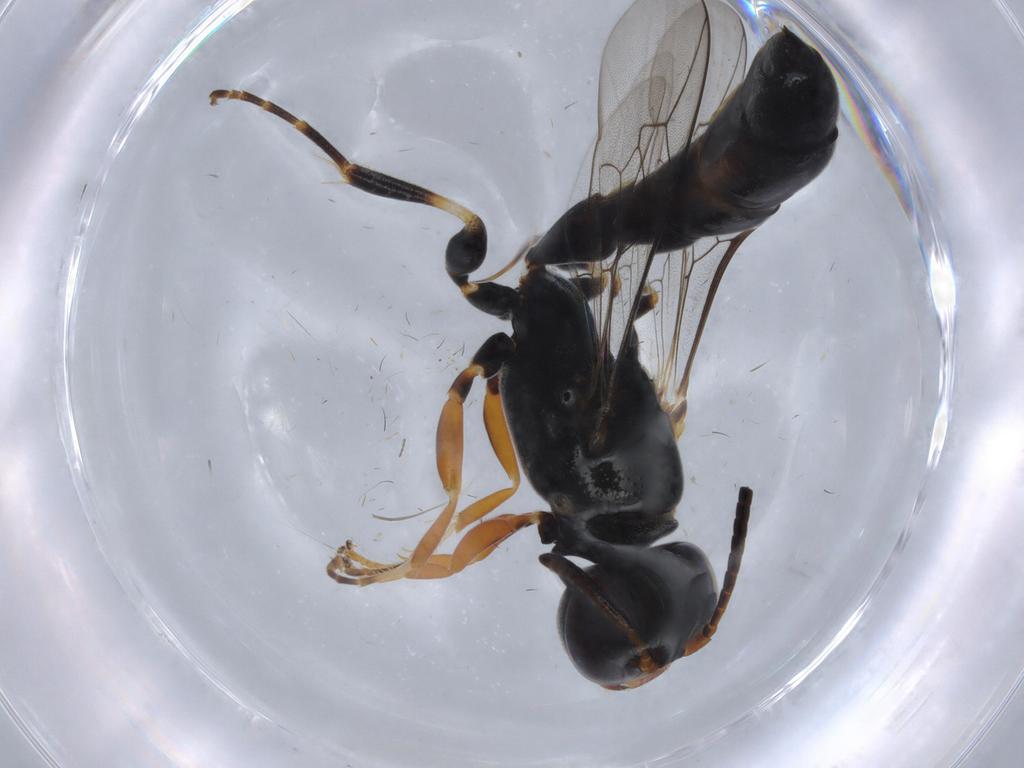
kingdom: Animalia
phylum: Arthropoda
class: Insecta
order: Hymenoptera
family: Crabronidae
